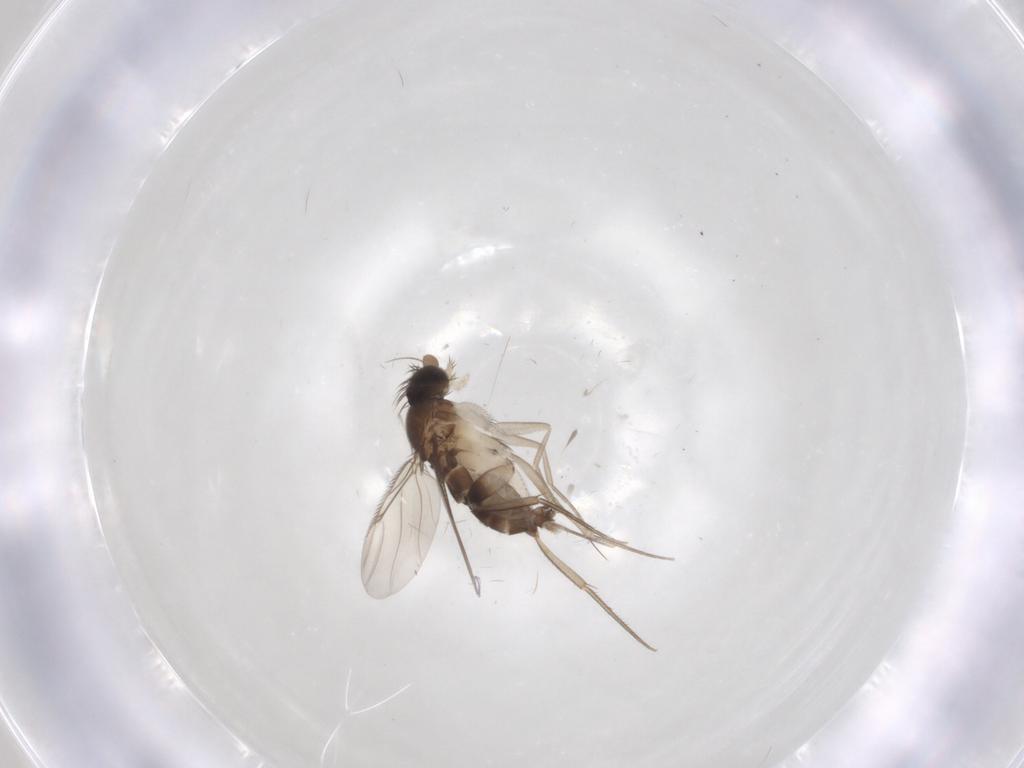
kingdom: Animalia
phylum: Arthropoda
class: Insecta
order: Diptera
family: Phoridae
